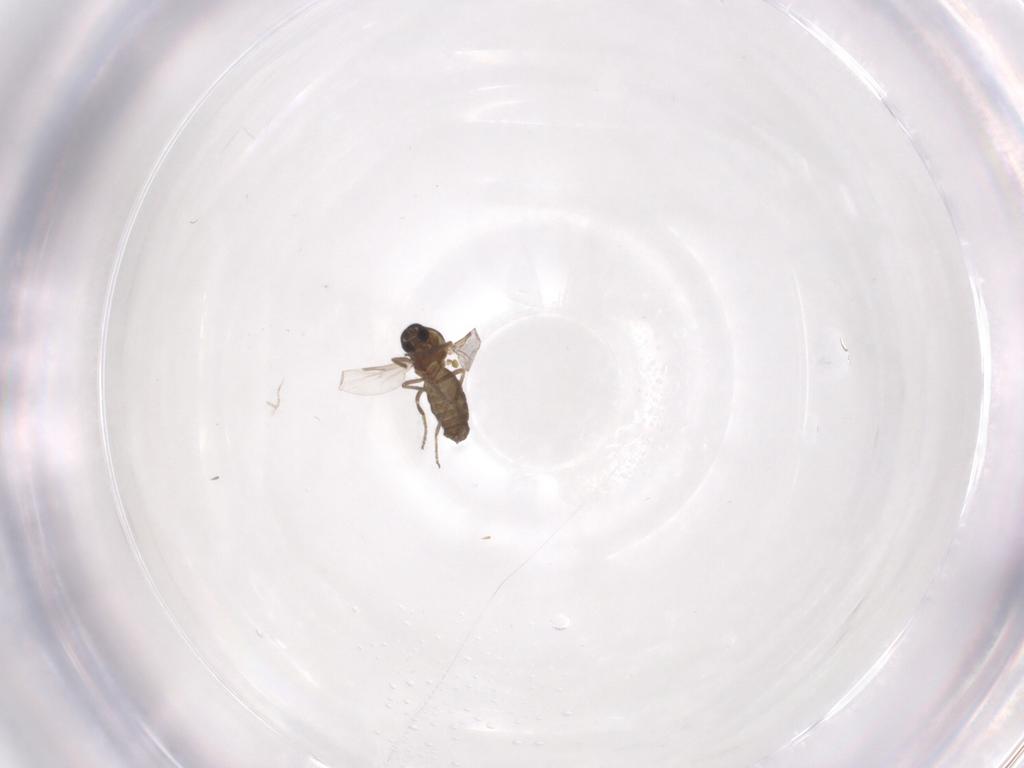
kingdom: Animalia
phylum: Arthropoda
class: Insecta
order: Diptera
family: Ceratopogonidae
